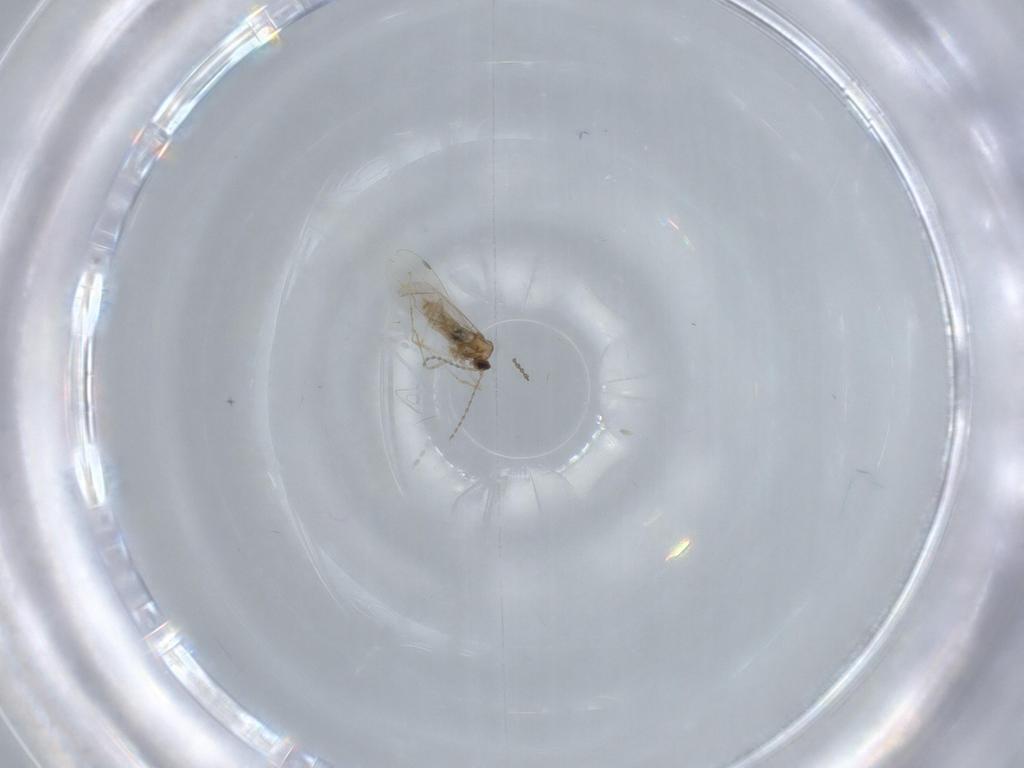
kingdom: Animalia
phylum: Arthropoda
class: Insecta
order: Diptera
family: Cecidomyiidae
